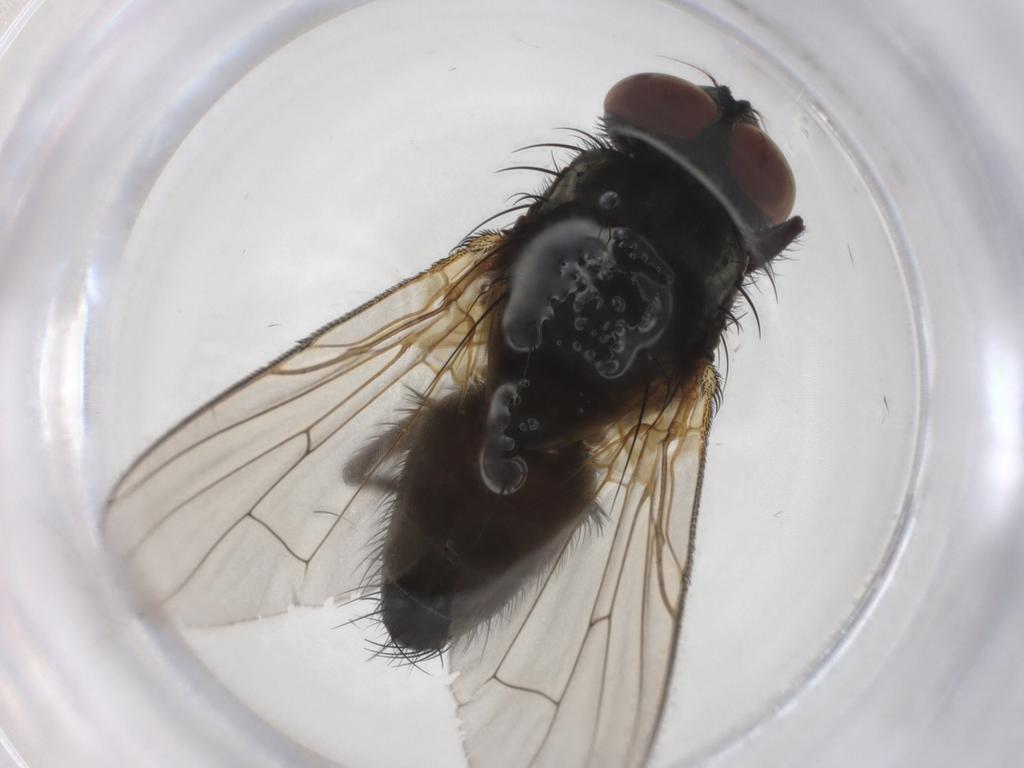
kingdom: Animalia
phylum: Arthropoda
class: Insecta
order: Diptera
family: Muscidae
